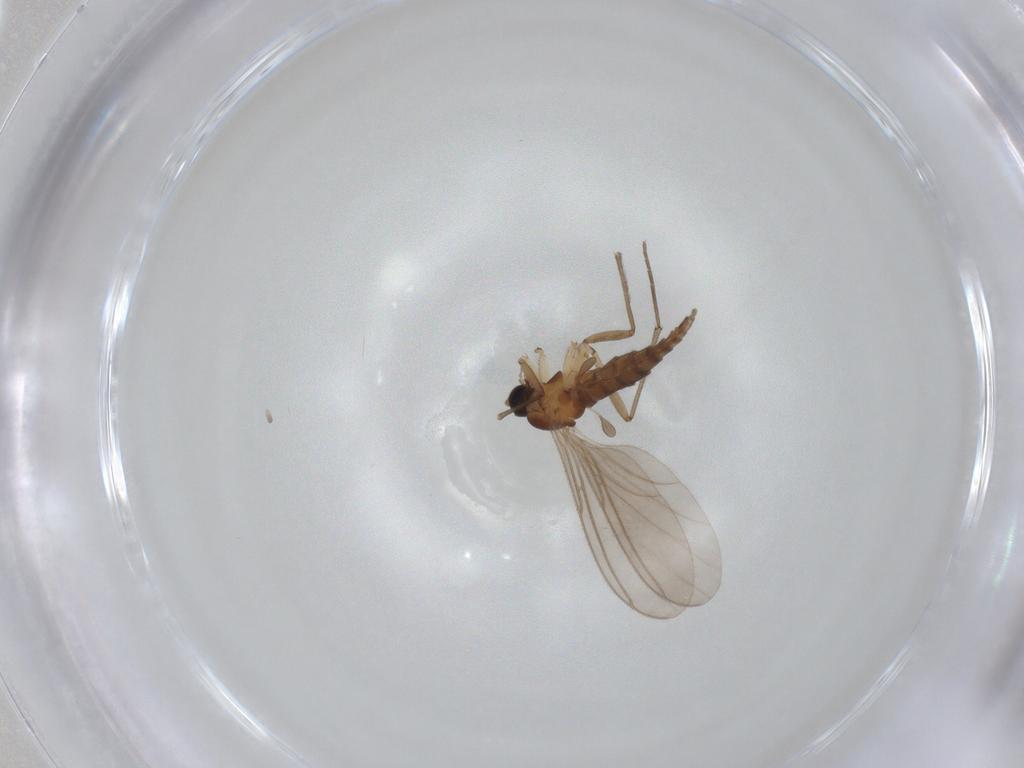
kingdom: Animalia
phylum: Arthropoda
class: Insecta
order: Diptera
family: Sciaridae
